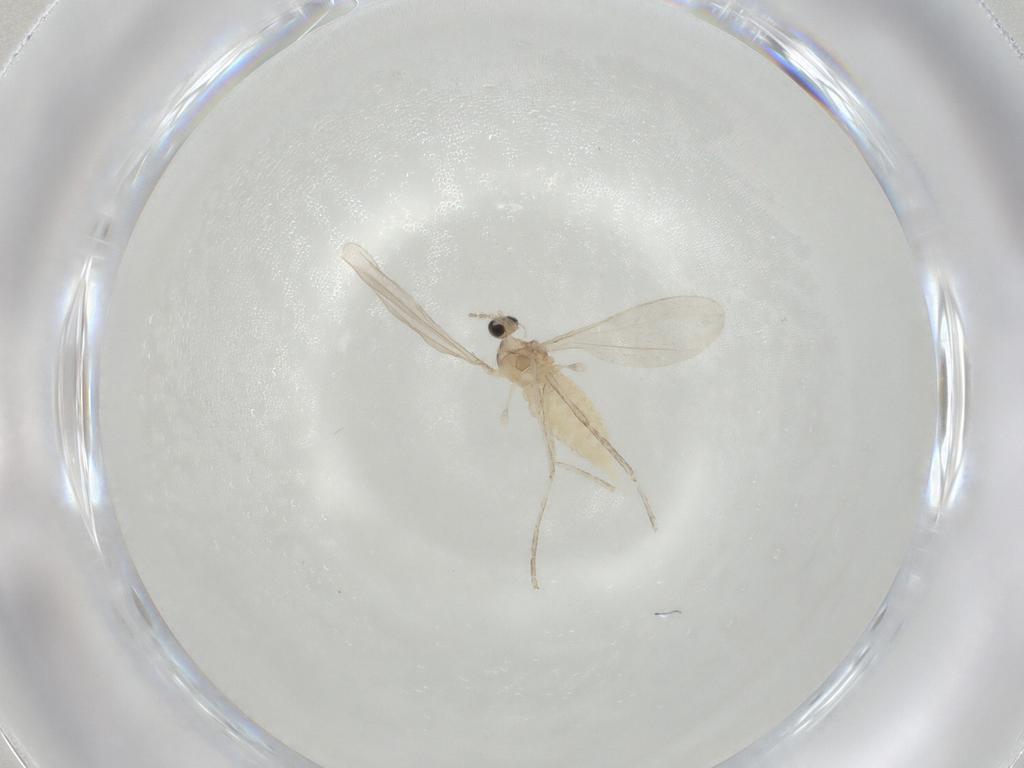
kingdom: Animalia
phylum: Arthropoda
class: Insecta
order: Diptera
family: Cecidomyiidae
